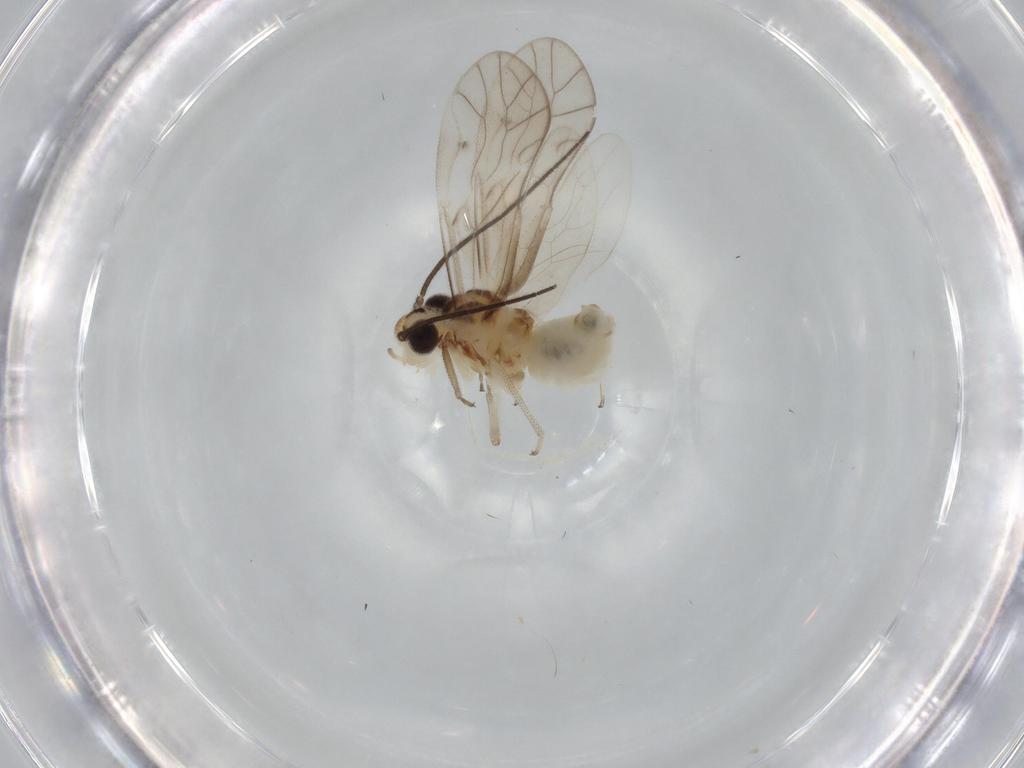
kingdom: Animalia
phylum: Arthropoda
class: Insecta
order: Psocodea
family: Caeciliusidae
